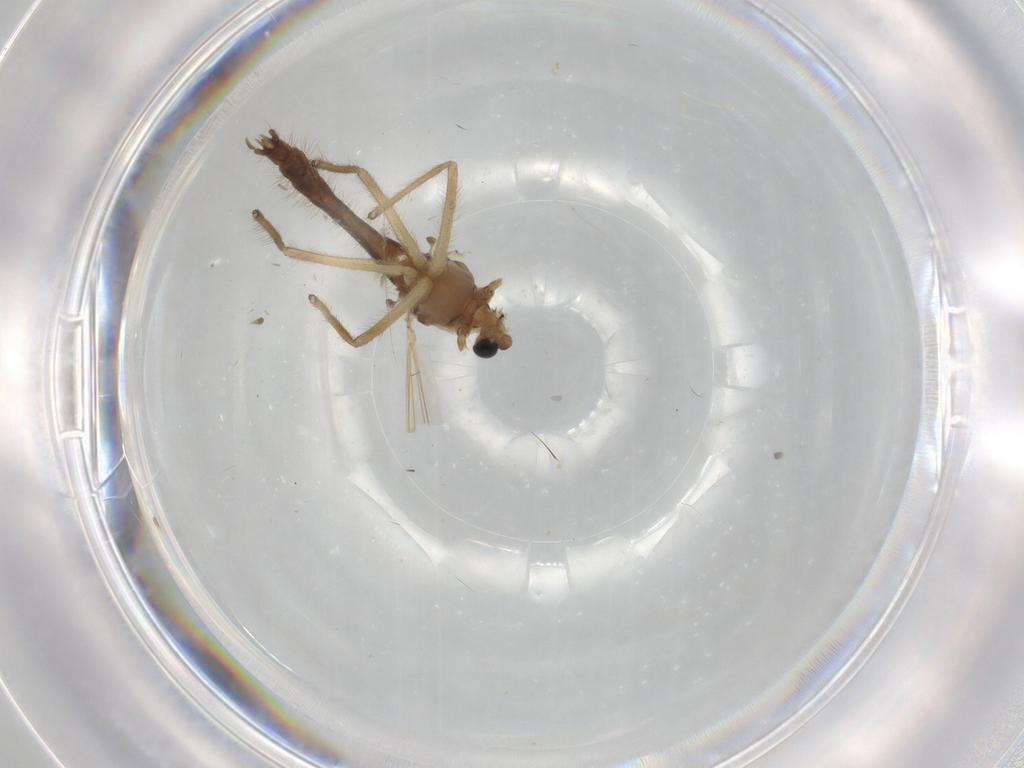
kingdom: Animalia
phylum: Arthropoda
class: Insecta
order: Diptera
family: Chironomidae
